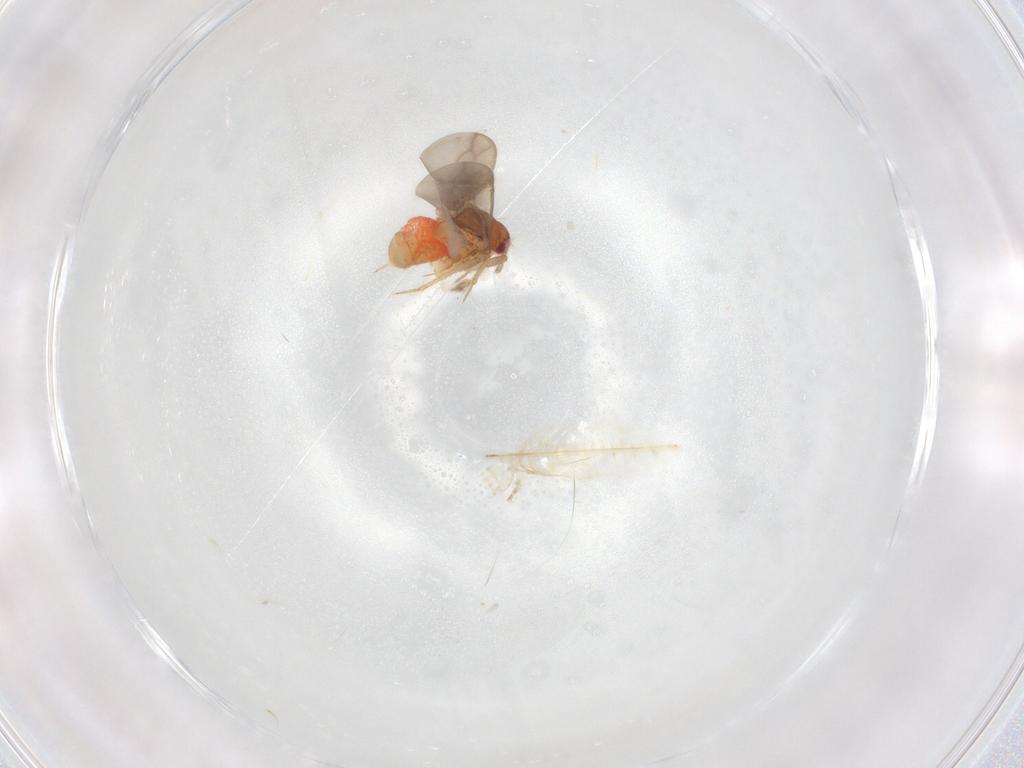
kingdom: Animalia
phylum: Arthropoda
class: Insecta
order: Hemiptera
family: Ceratocombidae
